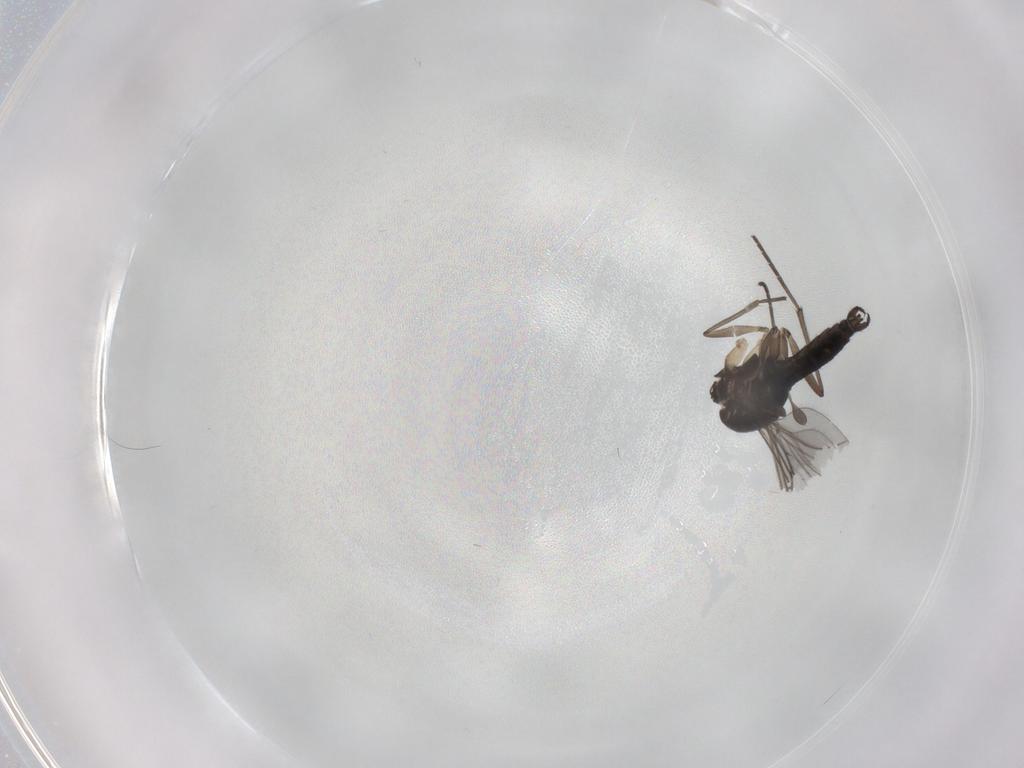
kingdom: Animalia
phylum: Arthropoda
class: Insecta
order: Diptera
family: Sciaridae
